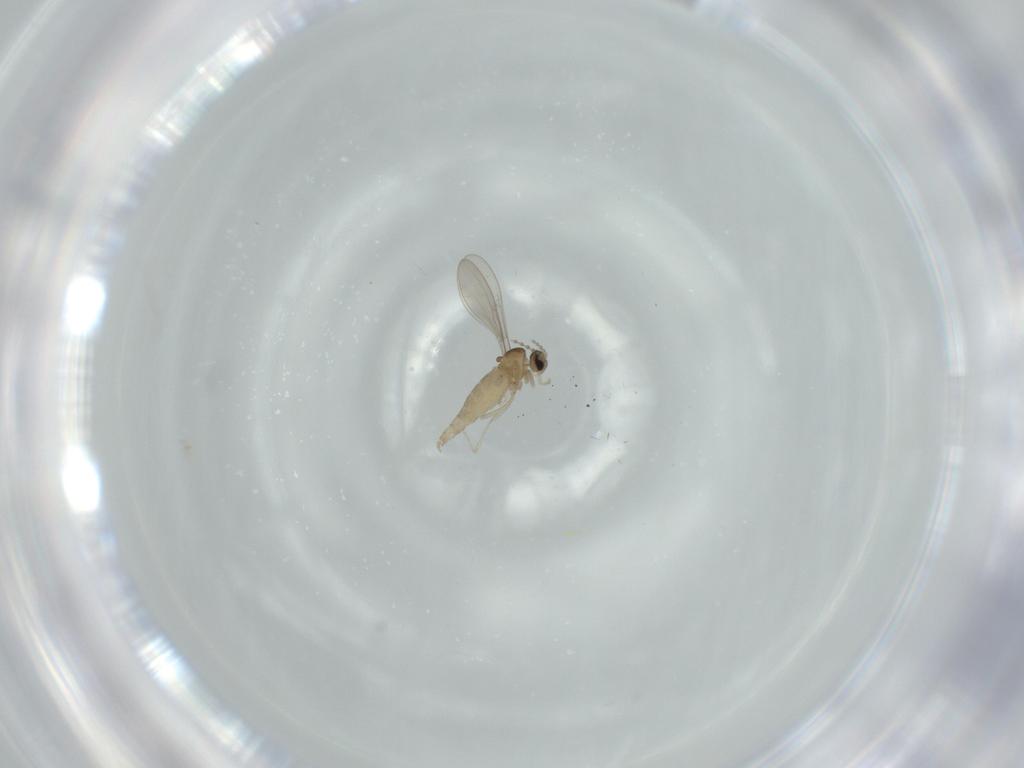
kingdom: Animalia
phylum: Arthropoda
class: Insecta
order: Diptera
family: Cecidomyiidae
